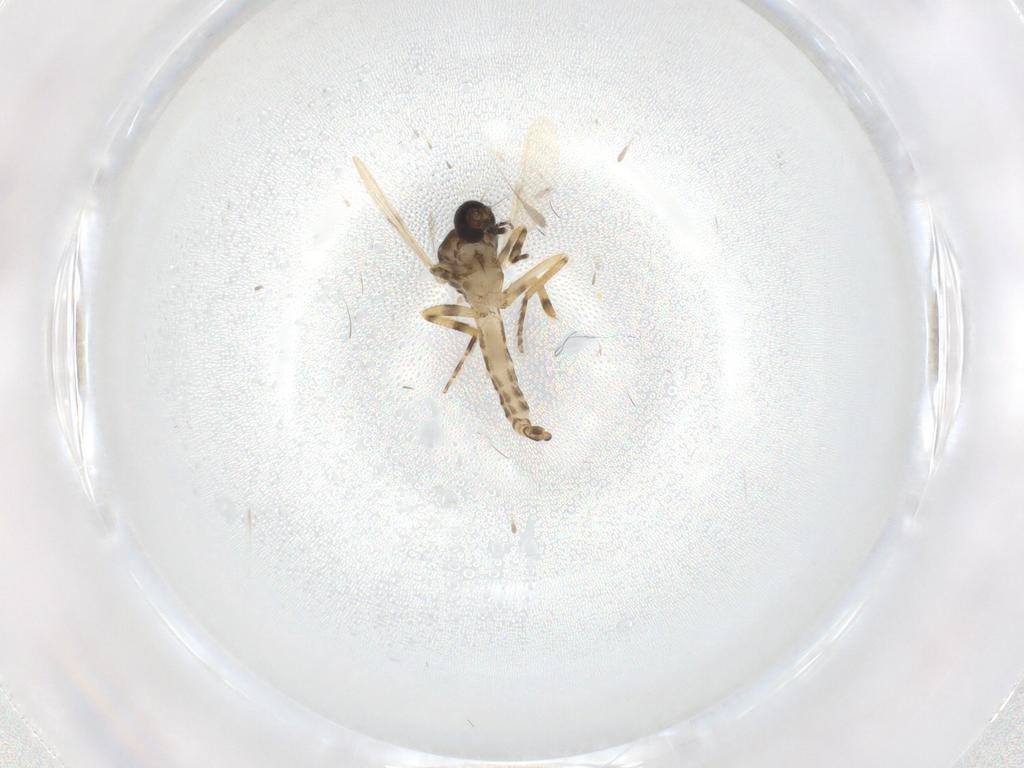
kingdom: Animalia
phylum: Arthropoda
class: Insecta
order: Diptera
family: Ceratopogonidae
